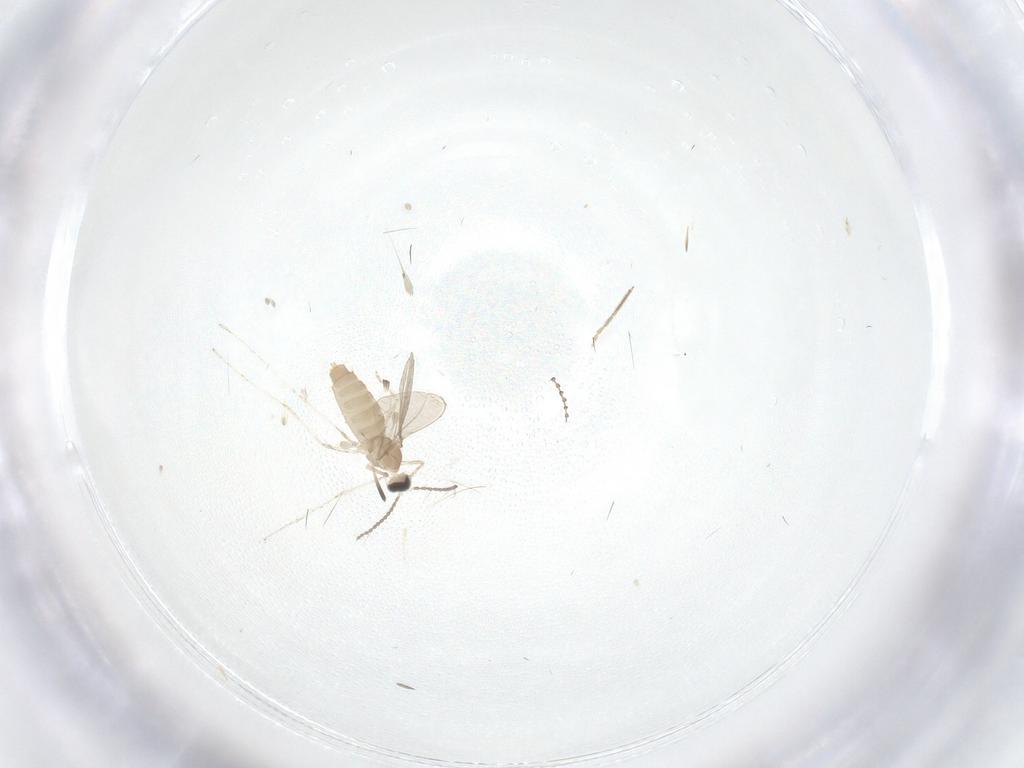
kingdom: Animalia
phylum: Arthropoda
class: Insecta
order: Diptera
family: Cecidomyiidae
